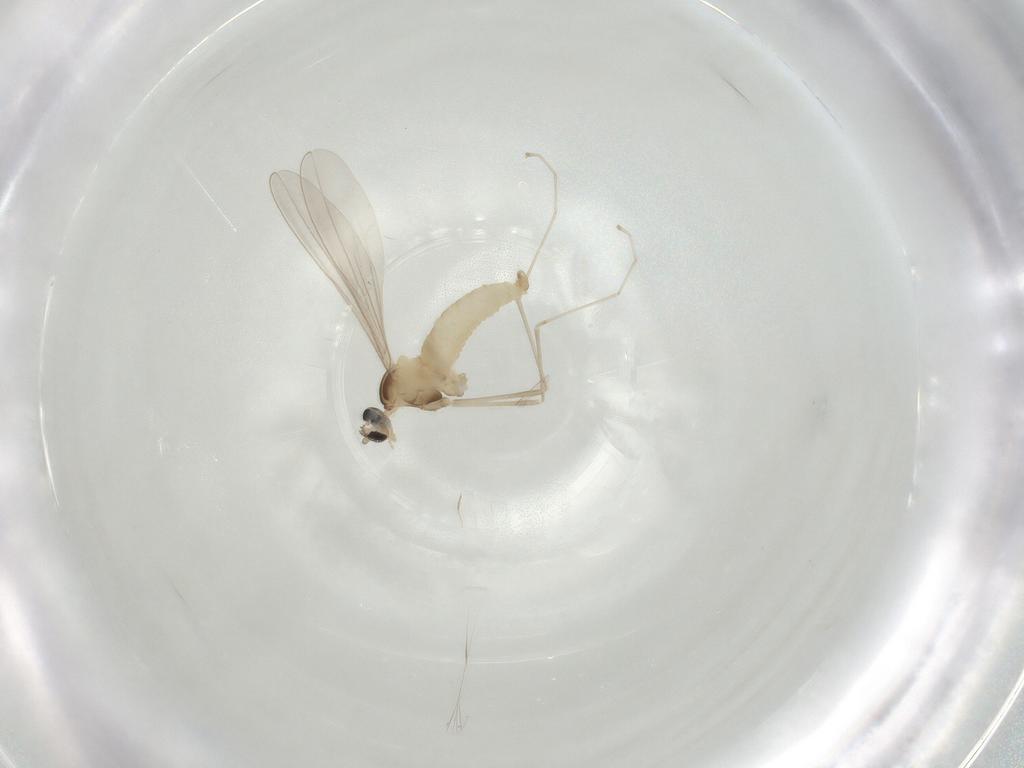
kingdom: Animalia
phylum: Arthropoda
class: Insecta
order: Diptera
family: Cecidomyiidae
